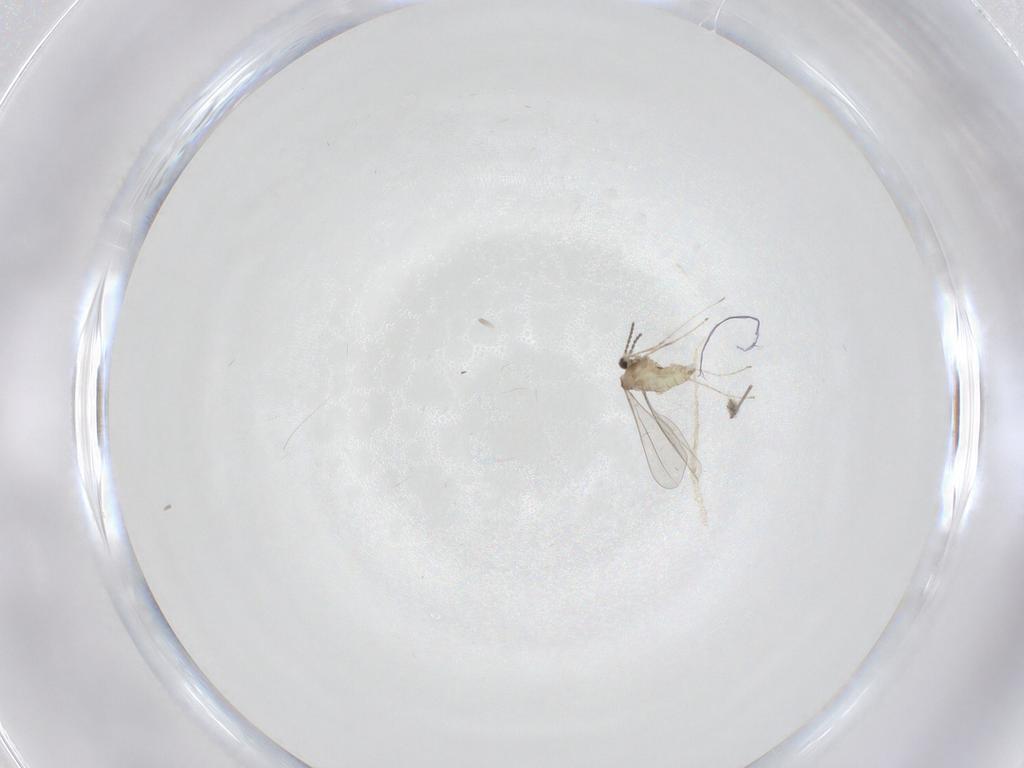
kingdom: Animalia
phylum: Arthropoda
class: Insecta
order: Diptera
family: Cecidomyiidae
